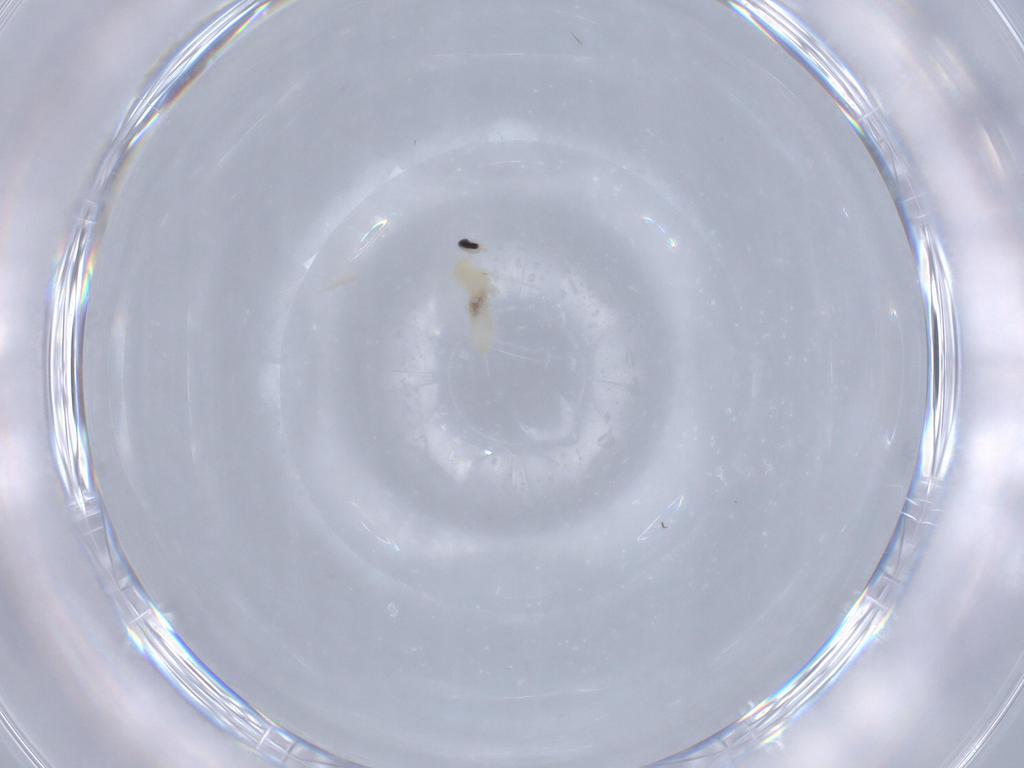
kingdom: Animalia
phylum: Arthropoda
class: Insecta
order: Diptera
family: Cecidomyiidae
